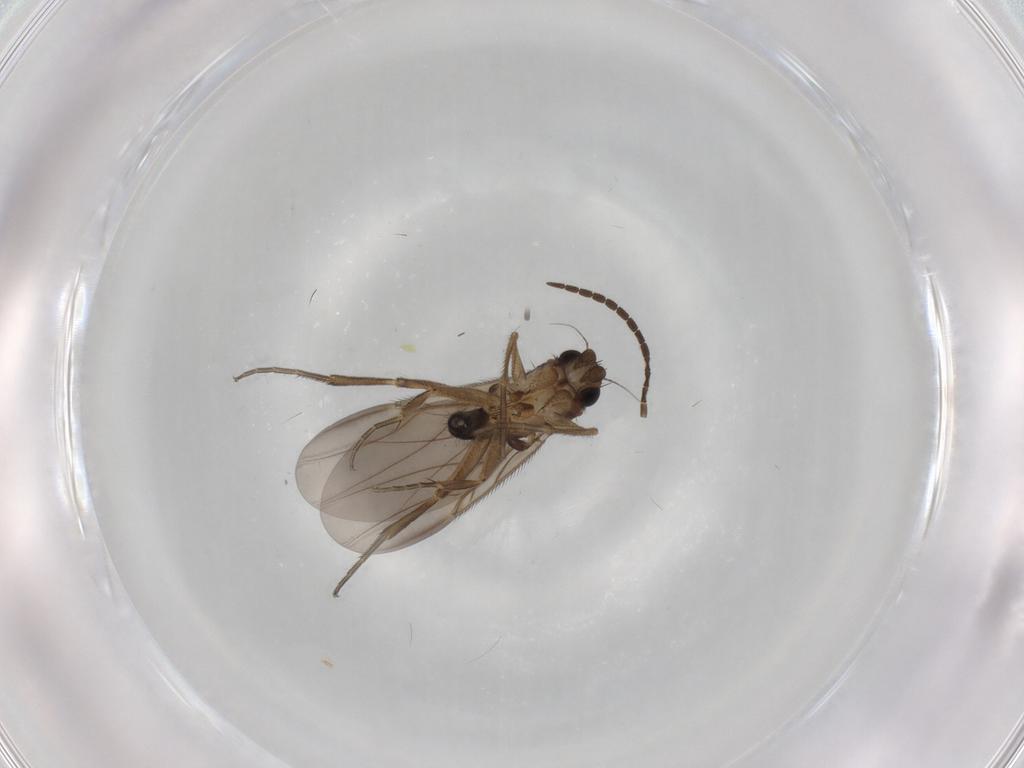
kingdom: Animalia
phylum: Arthropoda
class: Insecta
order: Diptera
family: Phoridae
